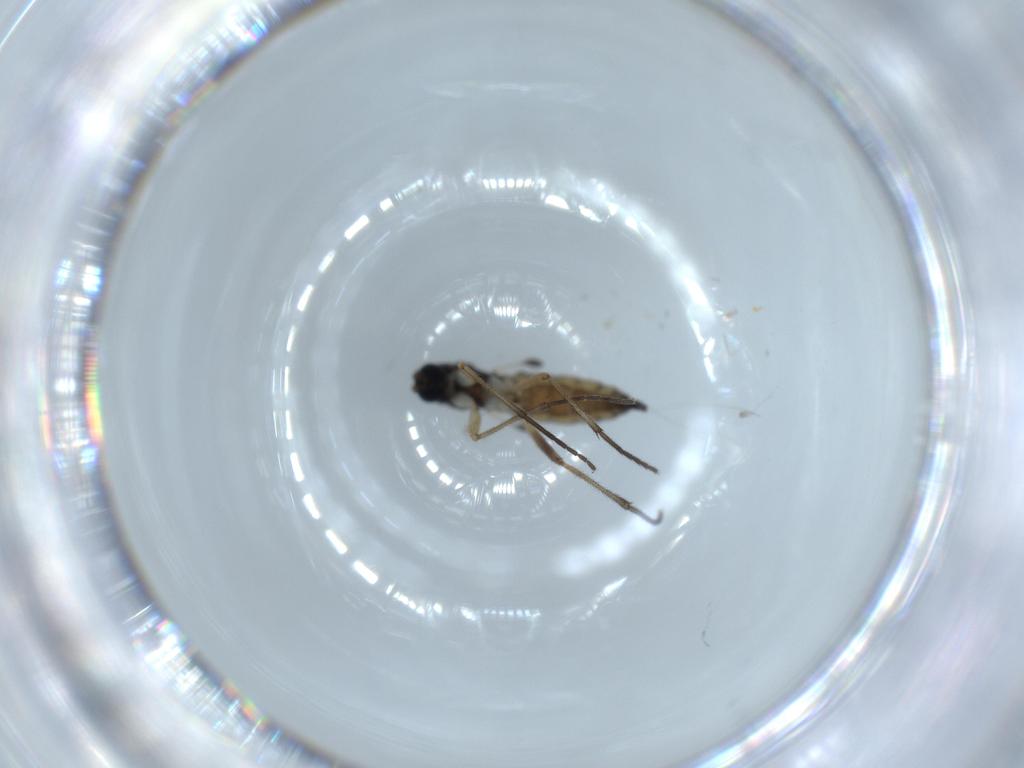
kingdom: Animalia
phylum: Arthropoda
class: Insecta
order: Diptera
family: Sciaridae
